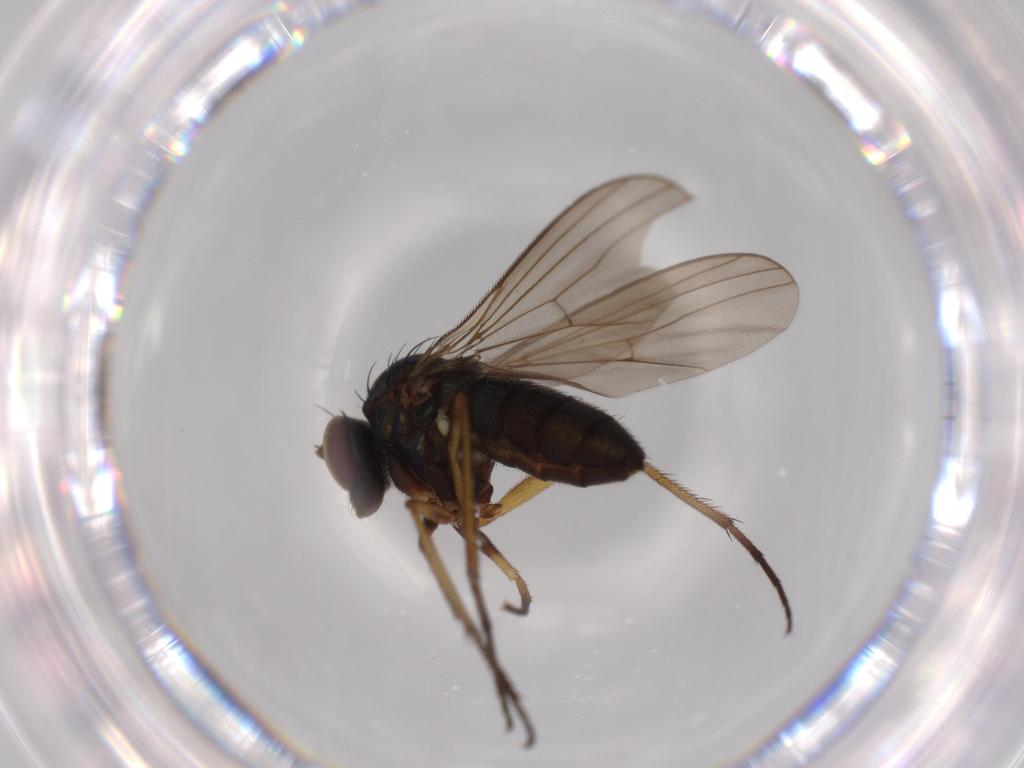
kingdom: Animalia
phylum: Arthropoda
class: Insecta
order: Diptera
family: Dolichopodidae
